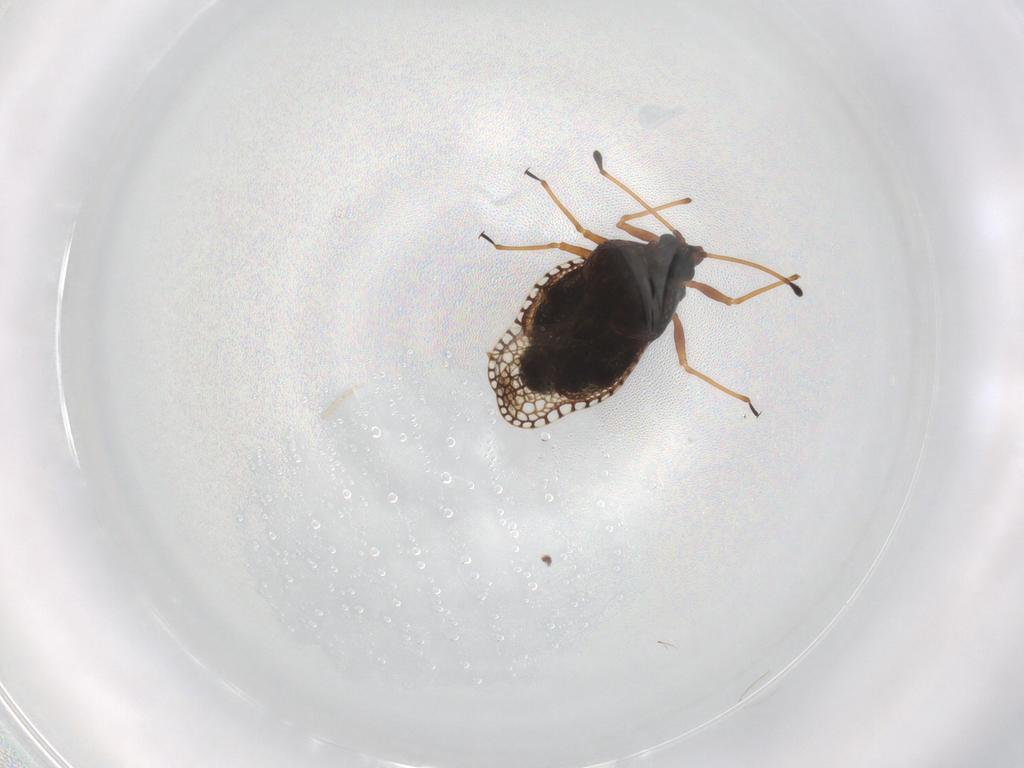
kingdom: Animalia
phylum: Arthropoda
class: Insecta
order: Hemiptera
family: Tingidae
